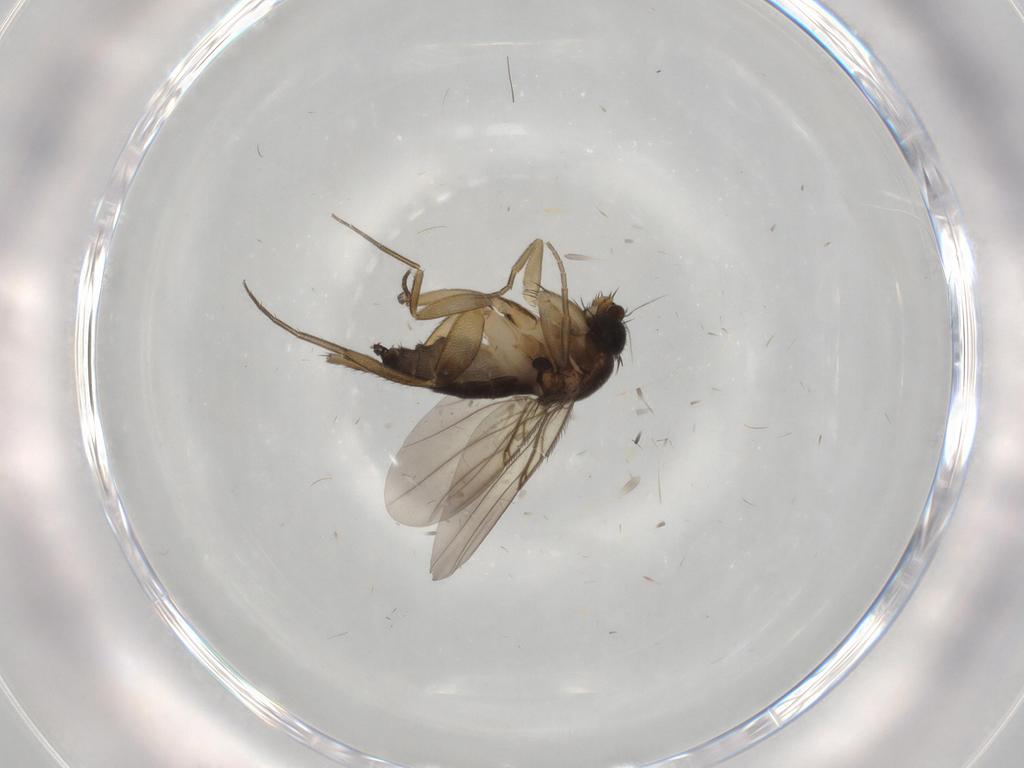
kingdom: Animalia
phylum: Arthropoda
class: Insecta
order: Diptera
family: Phoridae
